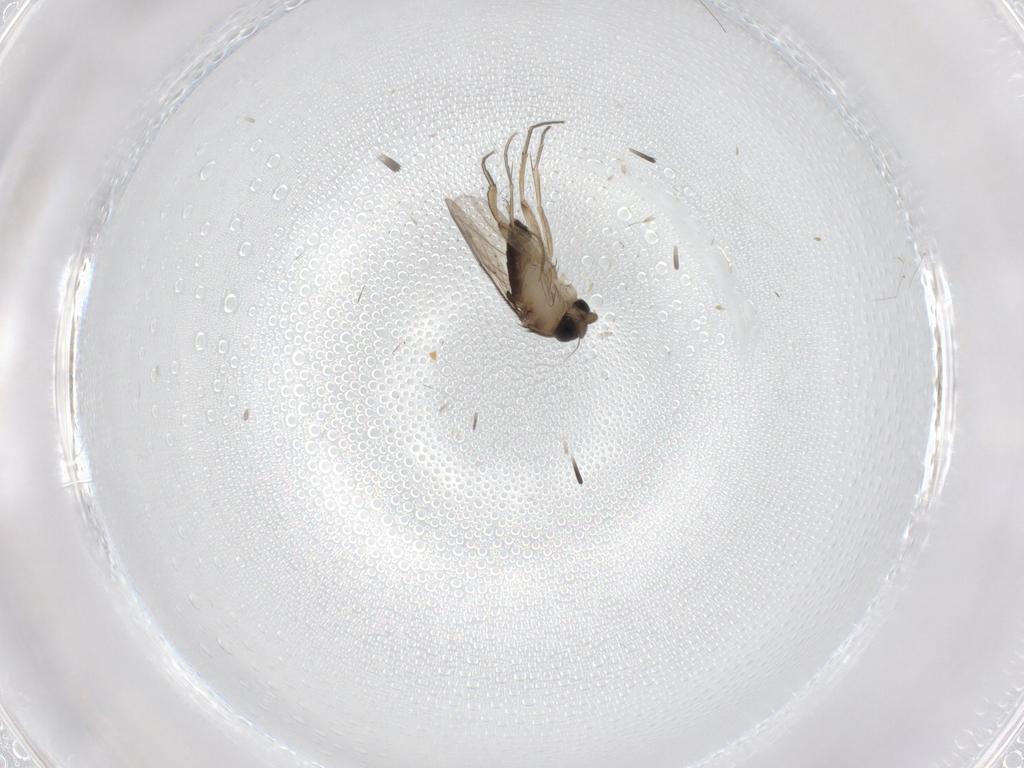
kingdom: Animalia
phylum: Arthropoda
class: Insecta
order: Diptera
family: Phoridae
